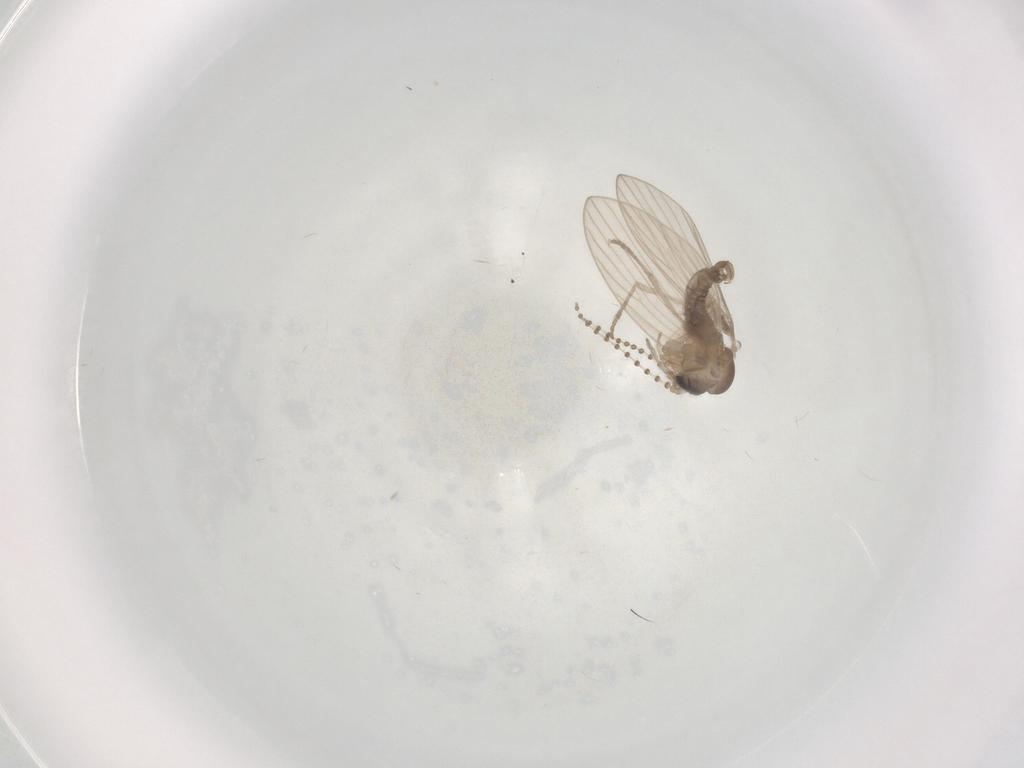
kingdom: Animalia
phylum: Arthropoda
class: Insecta
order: Diptera
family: Psychodidae
